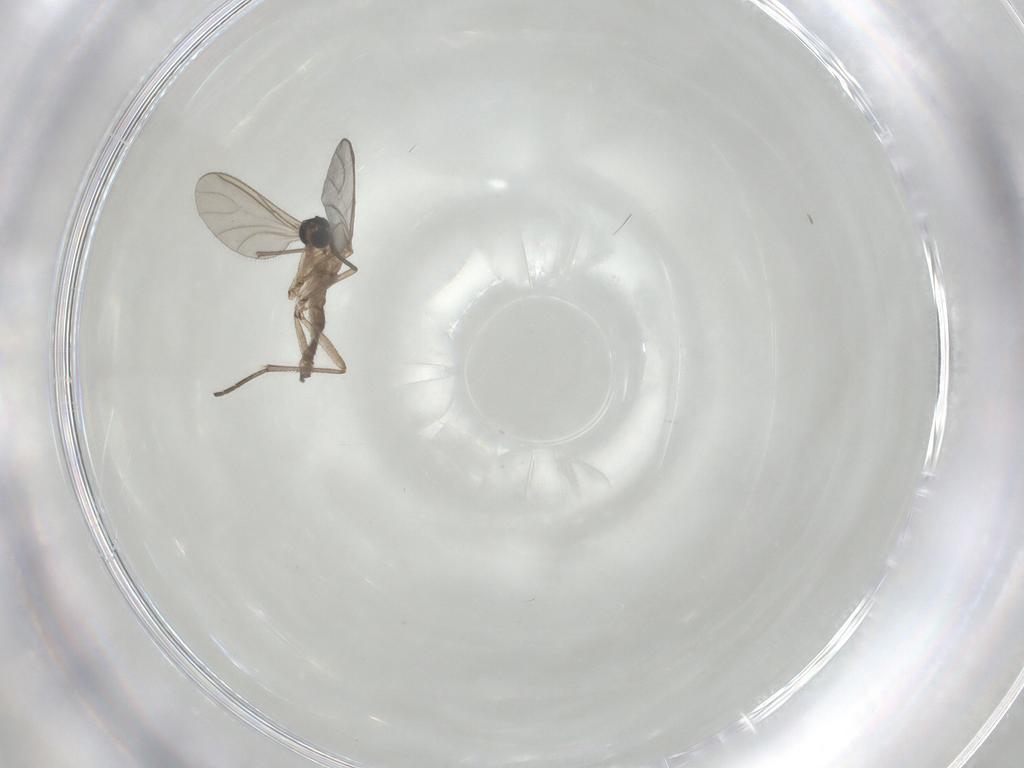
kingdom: Animalia
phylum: Arthropoda
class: Insecta
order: Diptera
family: Sciaridae
